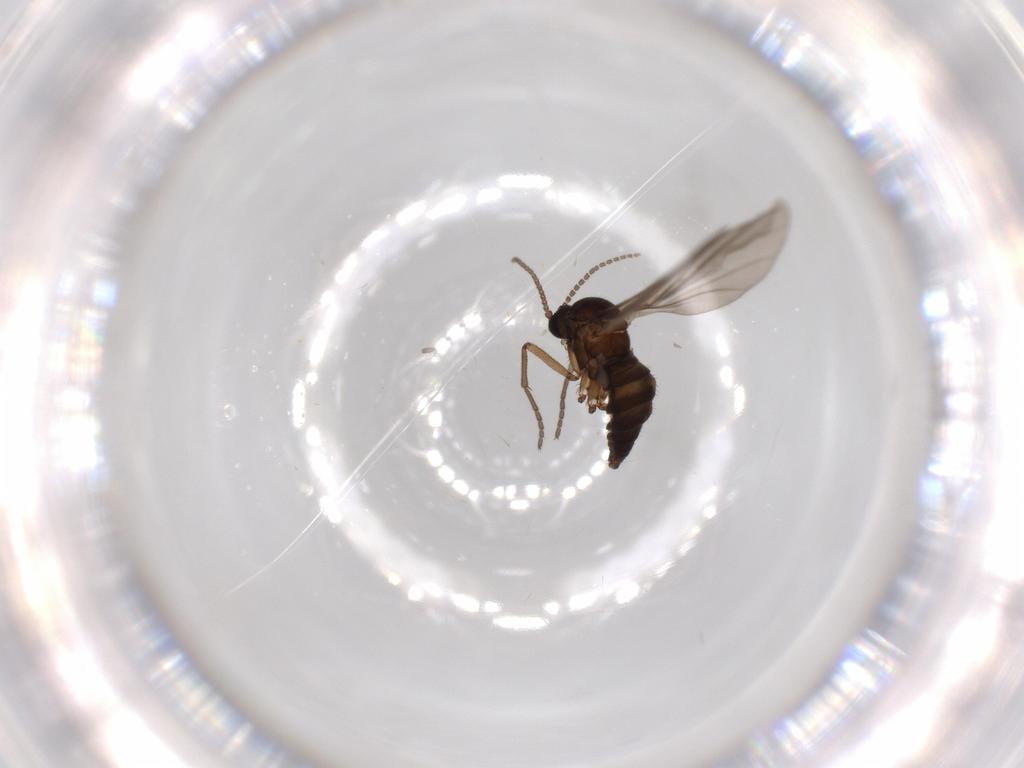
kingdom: Animalia
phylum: Arthropoda
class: Insecta
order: Diptera
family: Sciaridae
